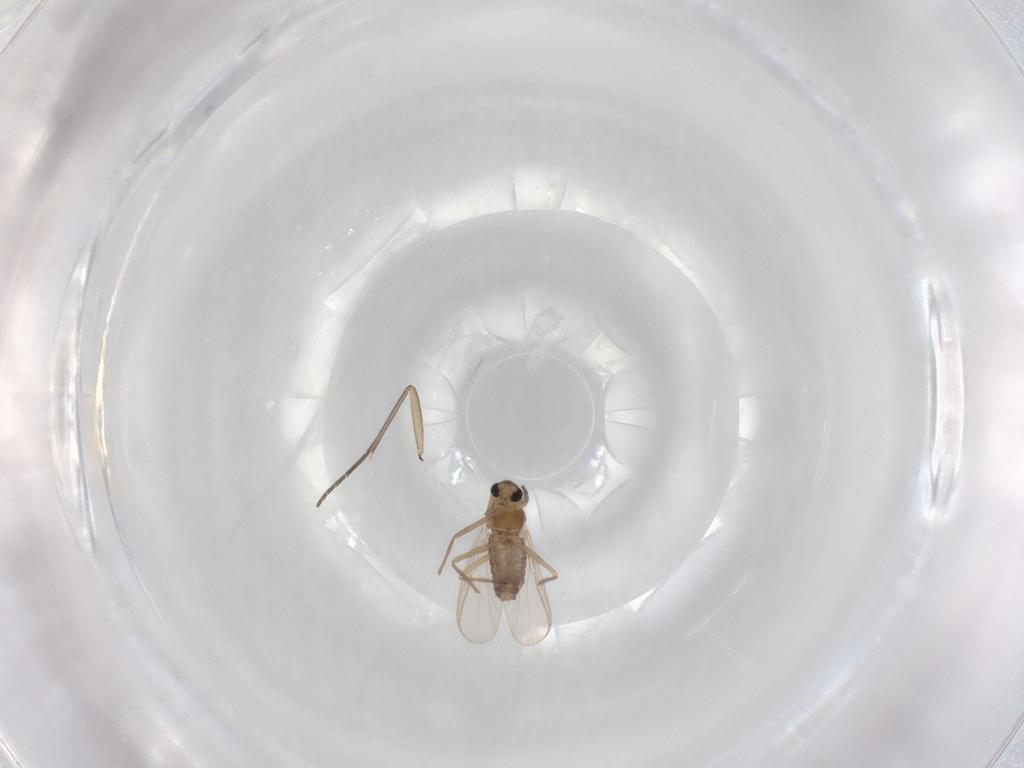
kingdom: Animalia
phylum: Arthropoda
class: Insecta
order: Diptera
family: Chironomidae
